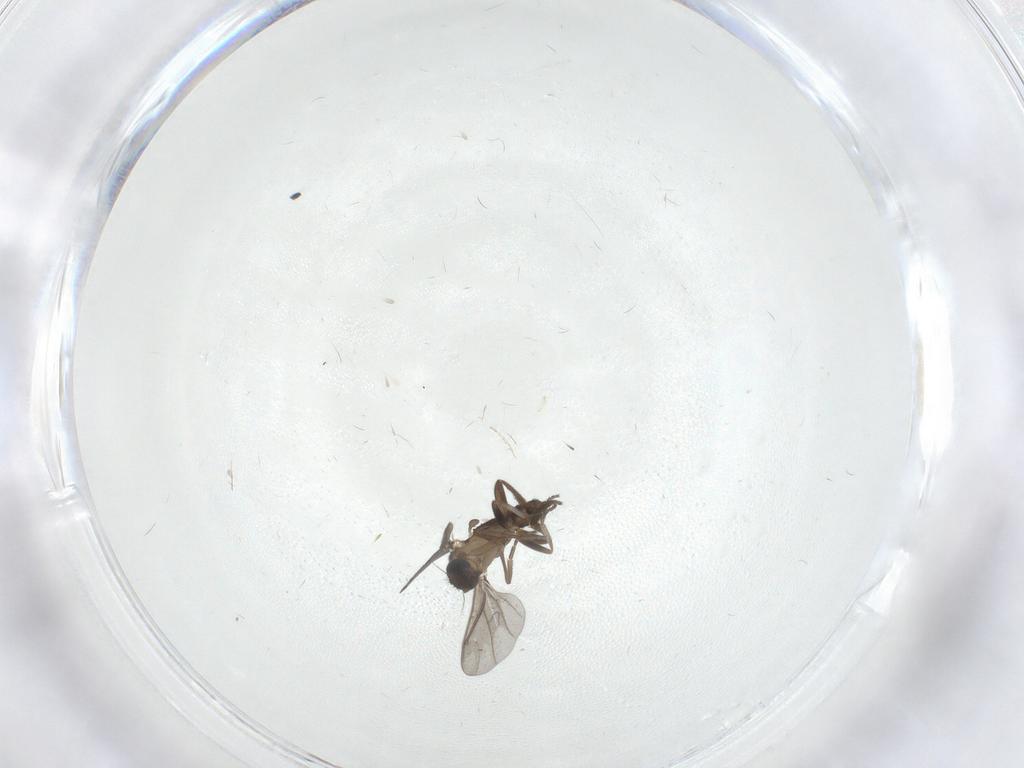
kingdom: Animalia
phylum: Arthropoda
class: Insecta
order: Diptera
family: Phoridae
